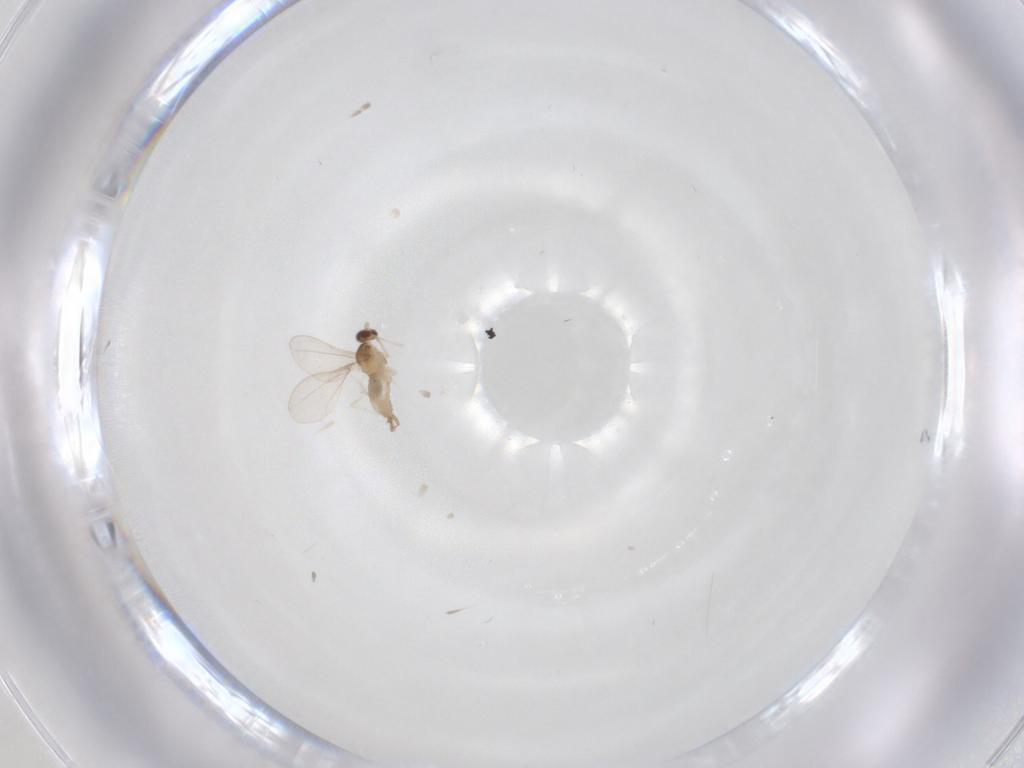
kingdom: Animalia
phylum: Arthropoda
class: Insecta
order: Diptera
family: Cecidomyiidae
